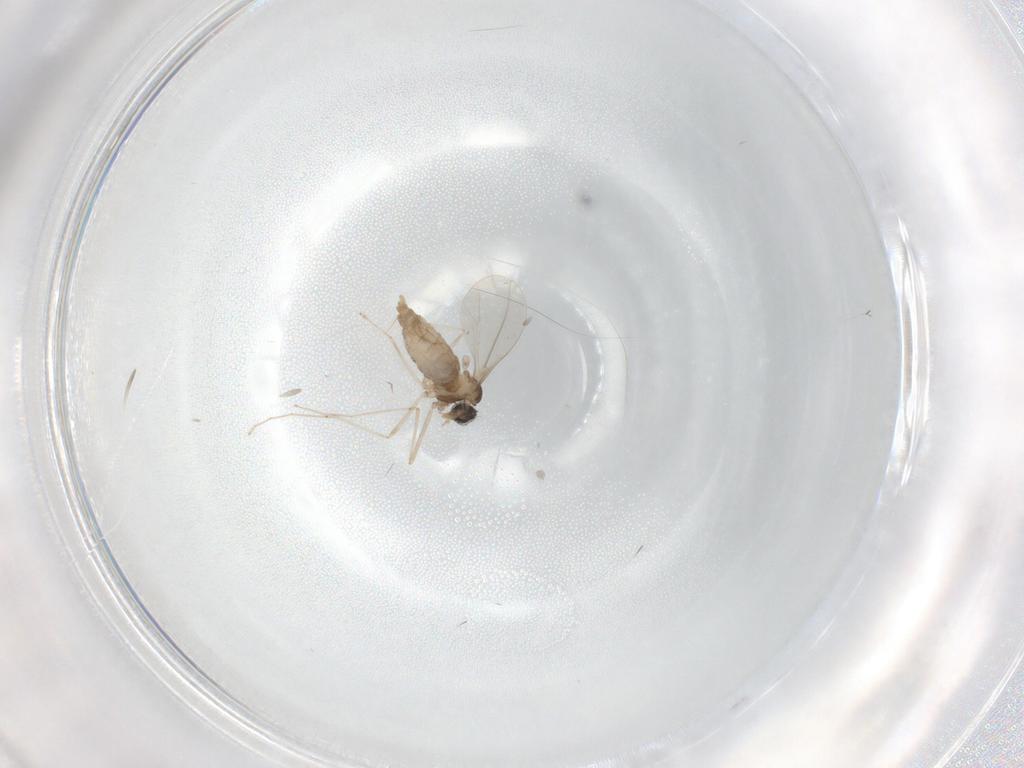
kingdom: Animalia
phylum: Arthropoda
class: Insecta
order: Diptera
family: Cecidomyiidae
